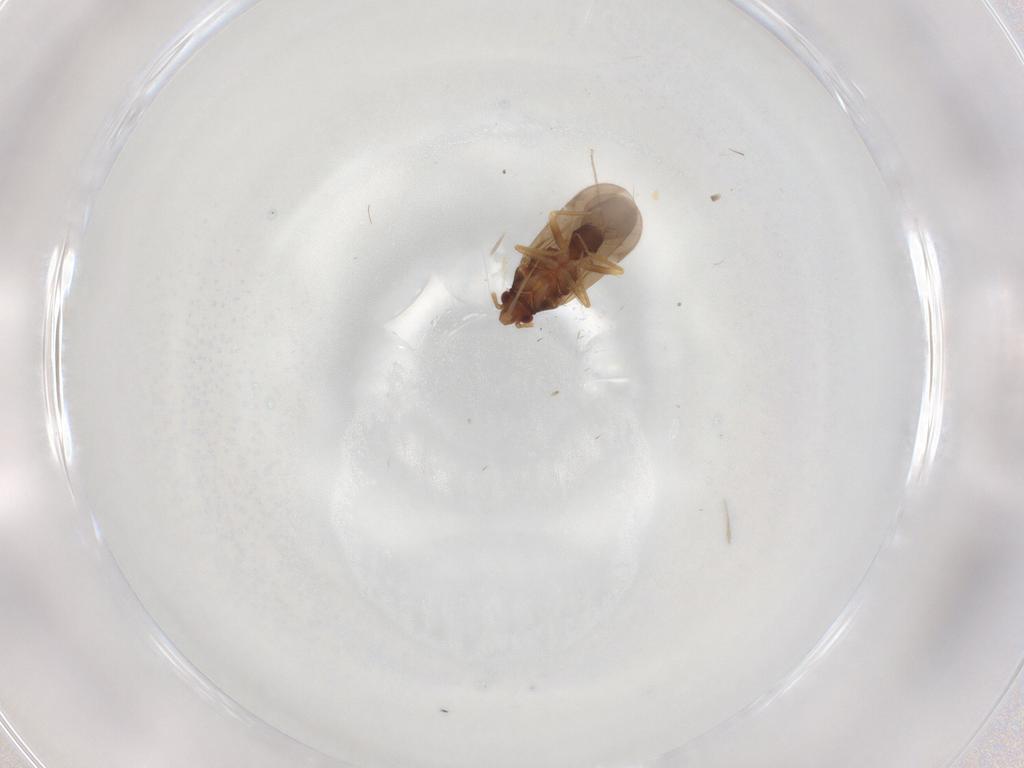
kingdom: Animalia
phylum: Arthropoda
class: Insecta
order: Hemiptera
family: Ceratocombidae
